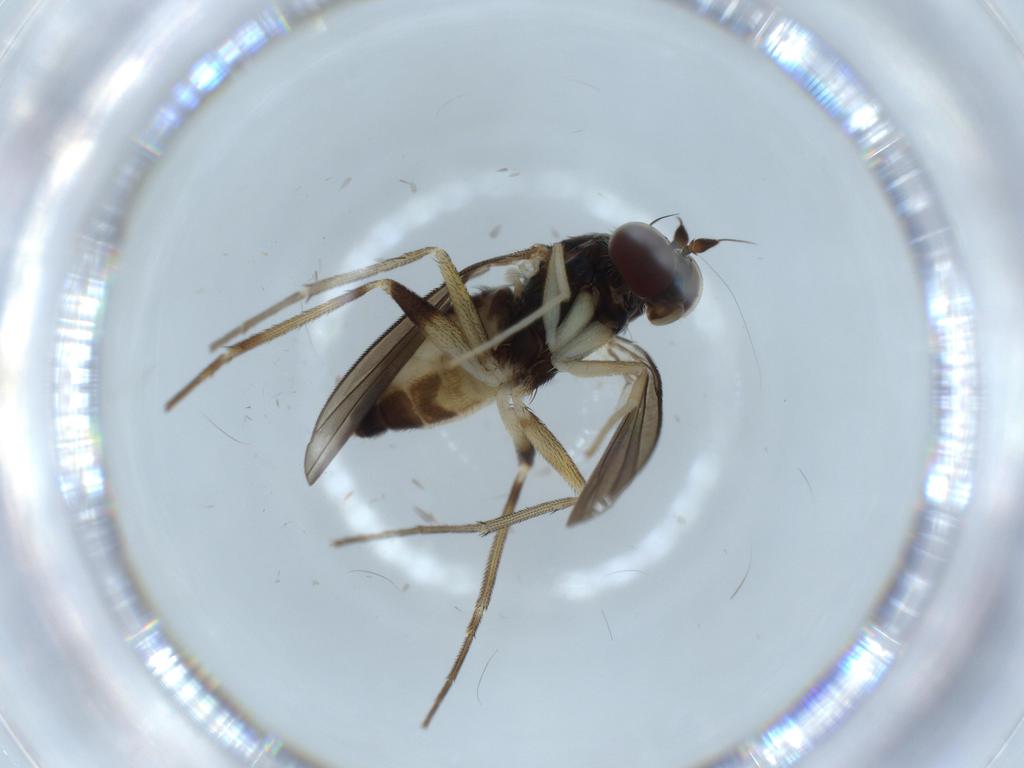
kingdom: Animalia
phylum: Arthropoda
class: Insecta
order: Diptera
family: Dolichopodidae
